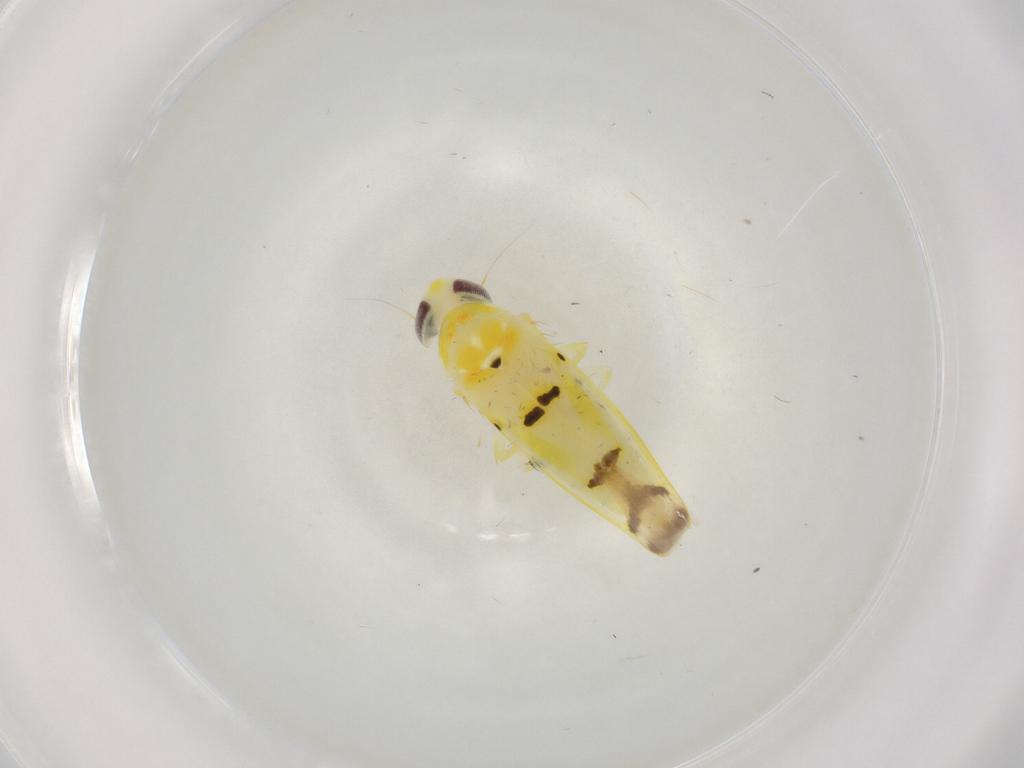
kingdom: Animalia
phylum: Arthropoda
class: Insecta
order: Hemiptera
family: Cicadellidae
